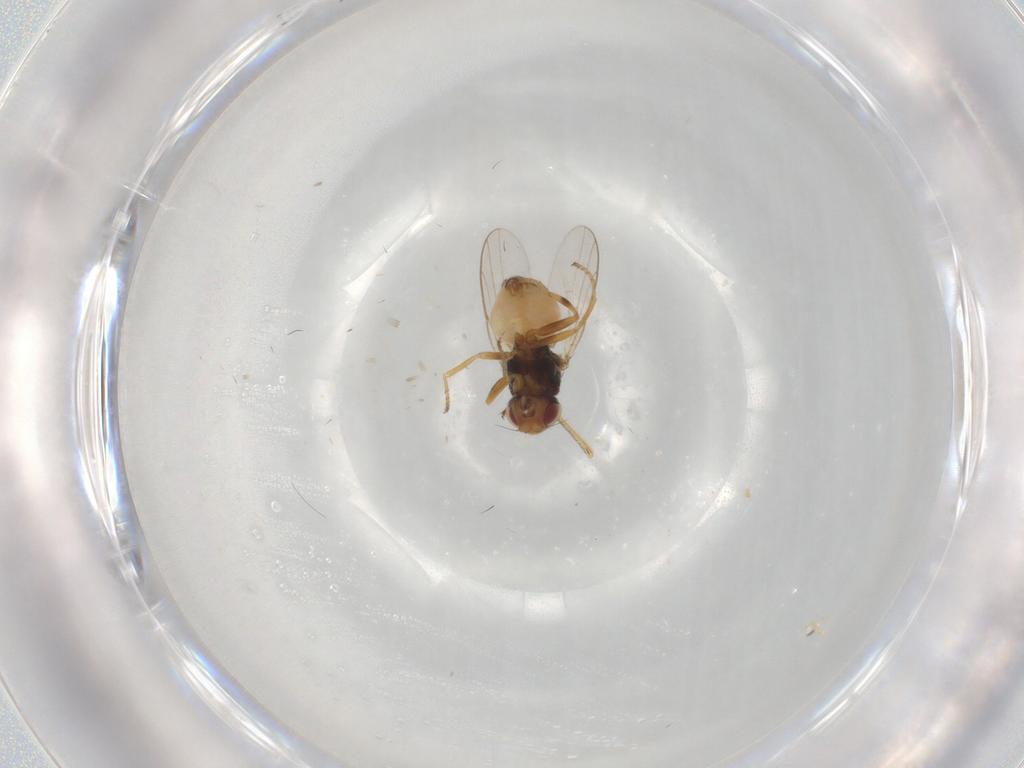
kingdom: Animalia
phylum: Arthropoda
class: Insecta
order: Diptera
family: Chloropidae
